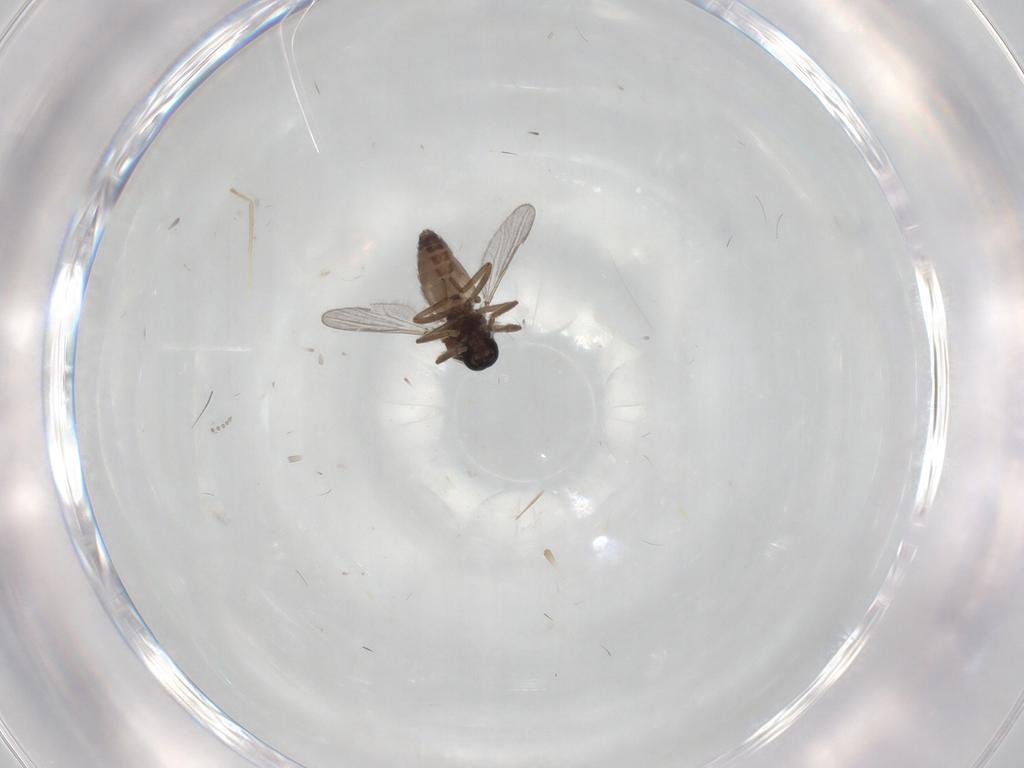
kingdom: Animalia
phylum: Arthropoda
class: Insecta
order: Diptera
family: Ceratopogonidae
